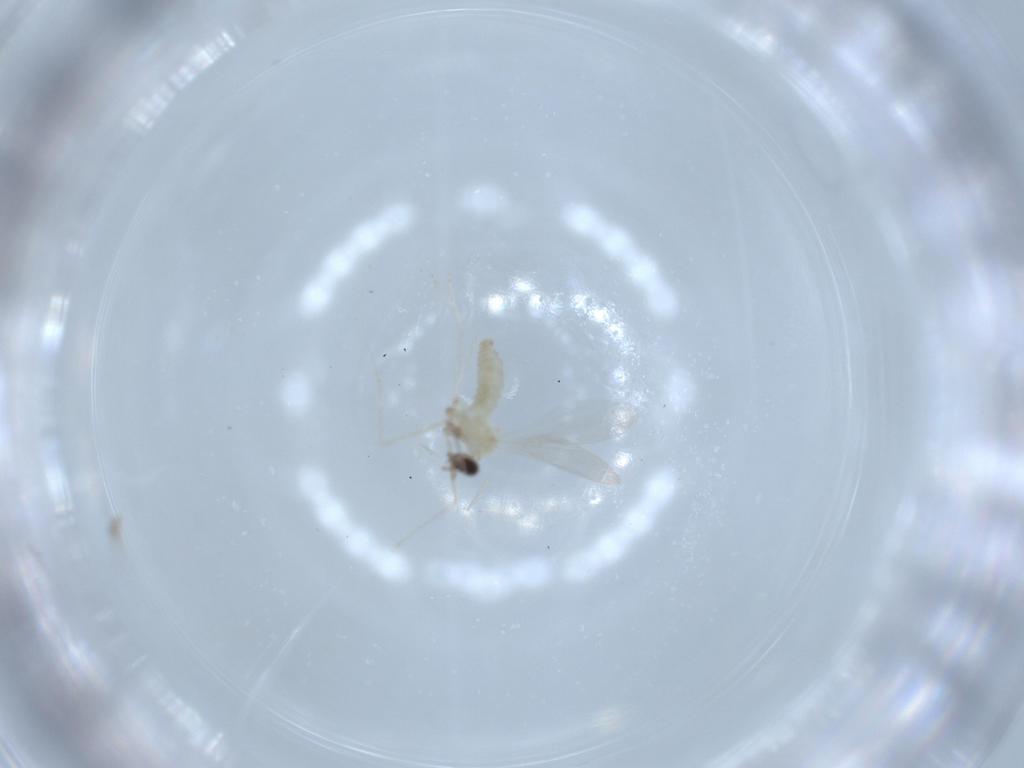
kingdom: Animalia
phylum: Arthropoda
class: Insecta
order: Diptera
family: Cecidomyiidae
